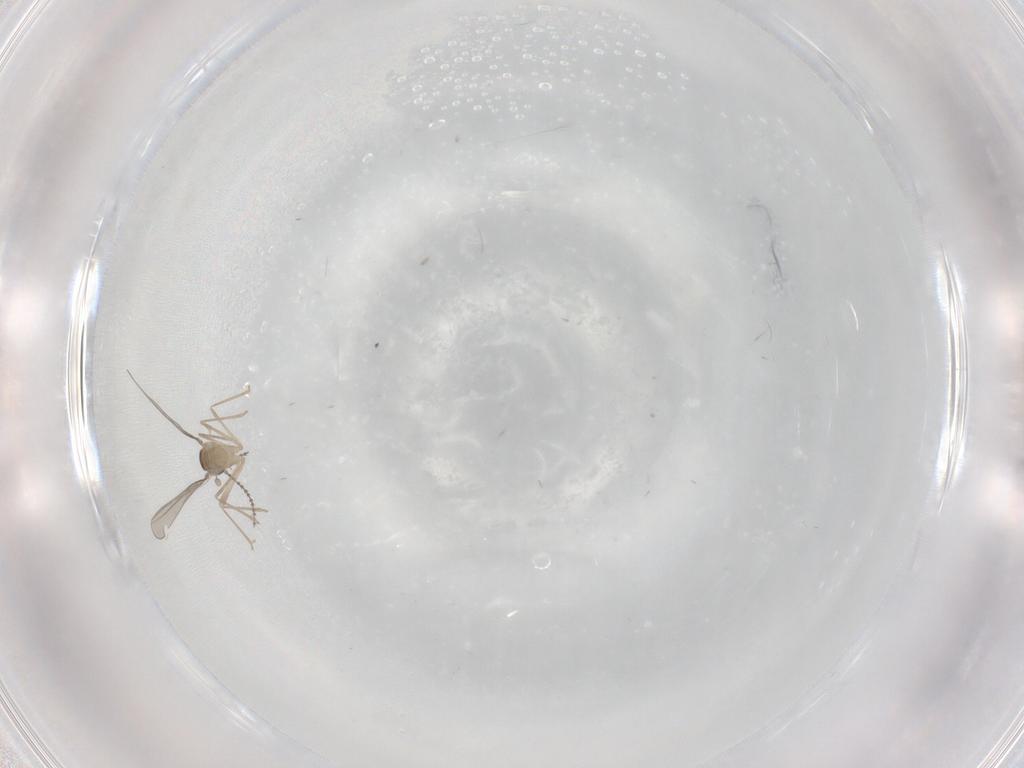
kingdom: Animalia
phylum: Arthropoda
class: Insecta
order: Diptera
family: Cecidomyiidae
